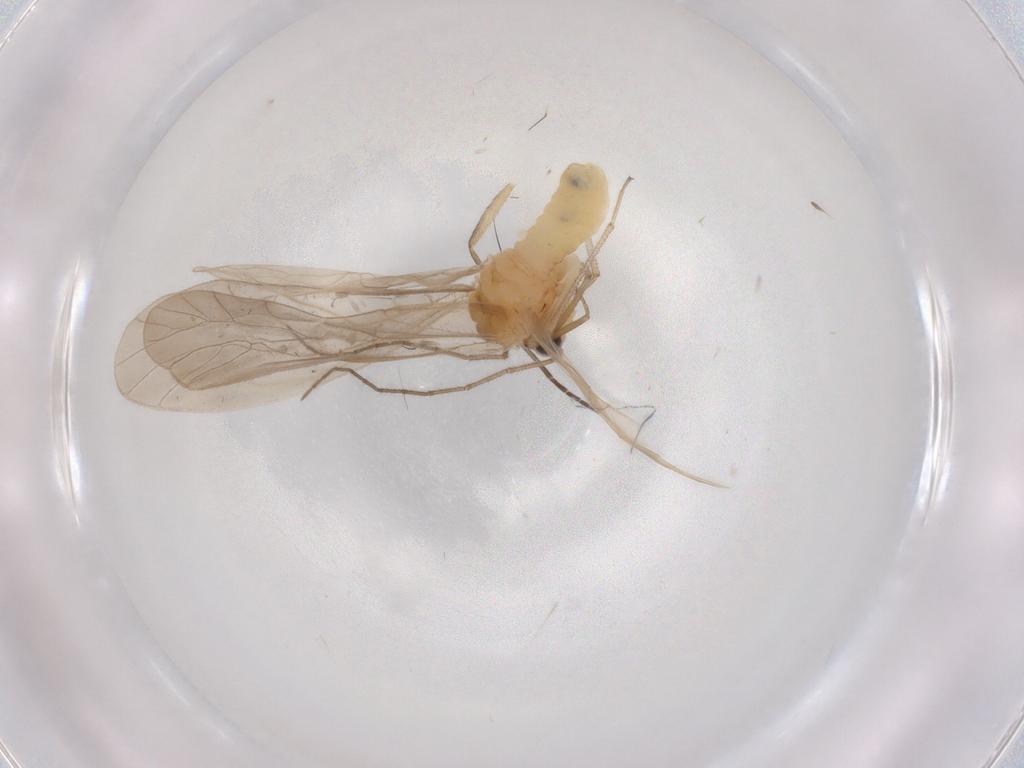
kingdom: Animalia
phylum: Arthropoda
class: Insecta
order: Psocodea
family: Caeciliusidae
